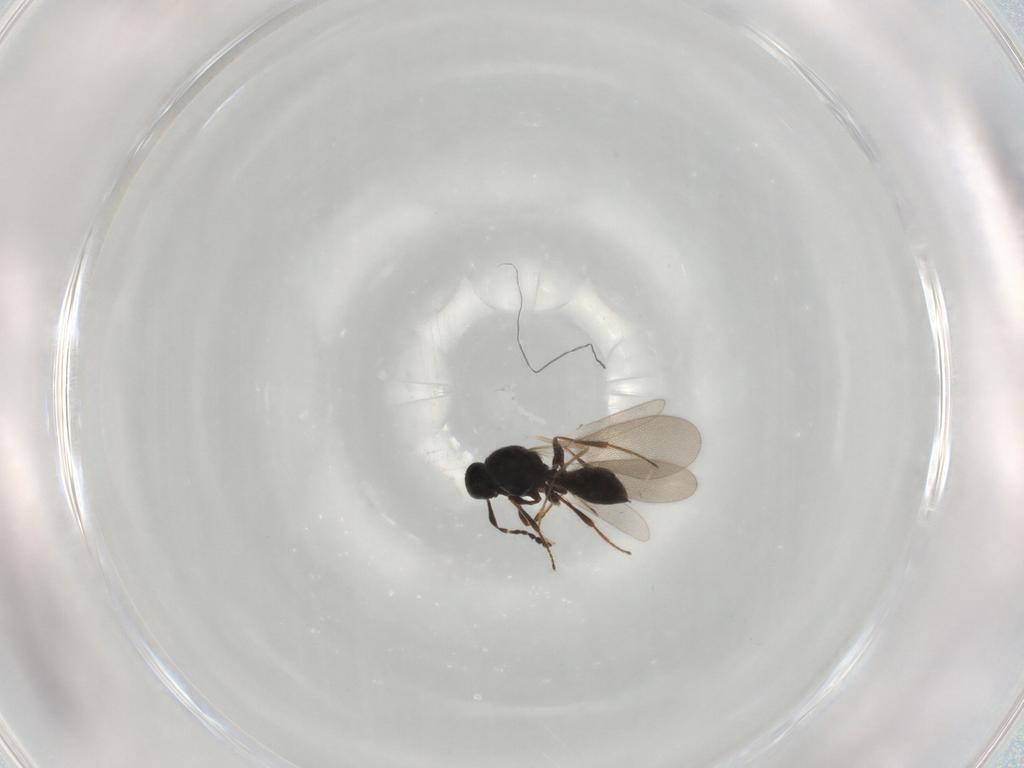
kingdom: Animalia
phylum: Arthropoda
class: Insecta
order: Hymenoptera
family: Platygastridae
